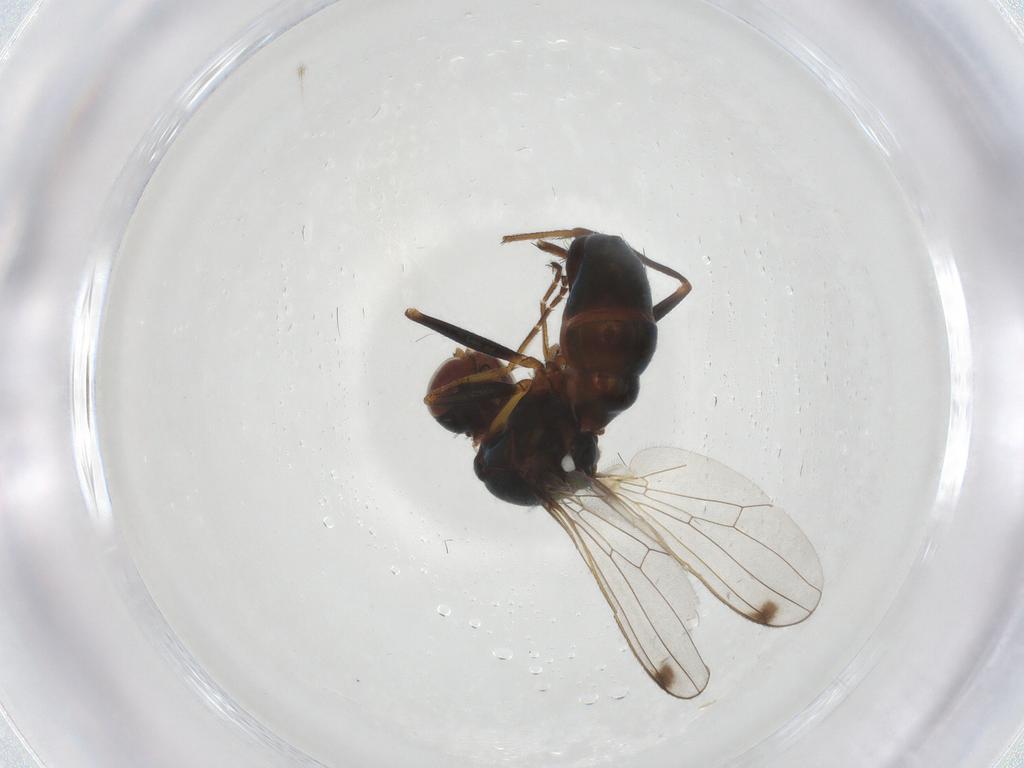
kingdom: Animalia
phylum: Arthropoda
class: Insecta
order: Diptera
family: Sepsidae
